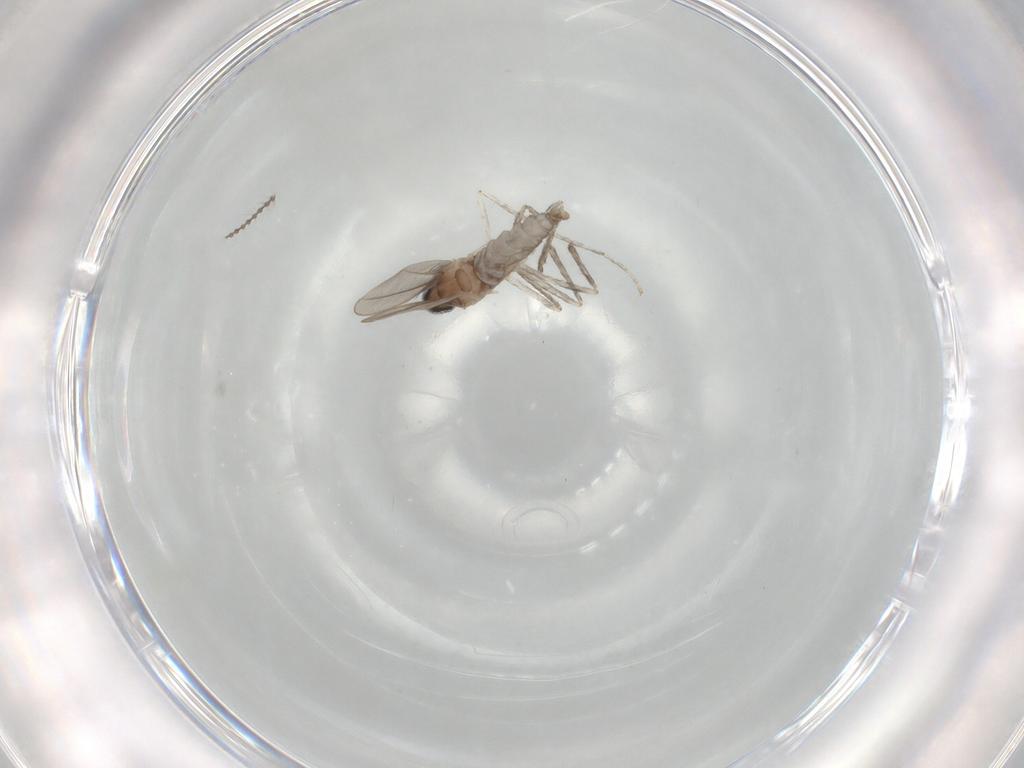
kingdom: Animalia
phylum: Arthropoda
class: Insecta
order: Diptera
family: Cecidomyiidae
